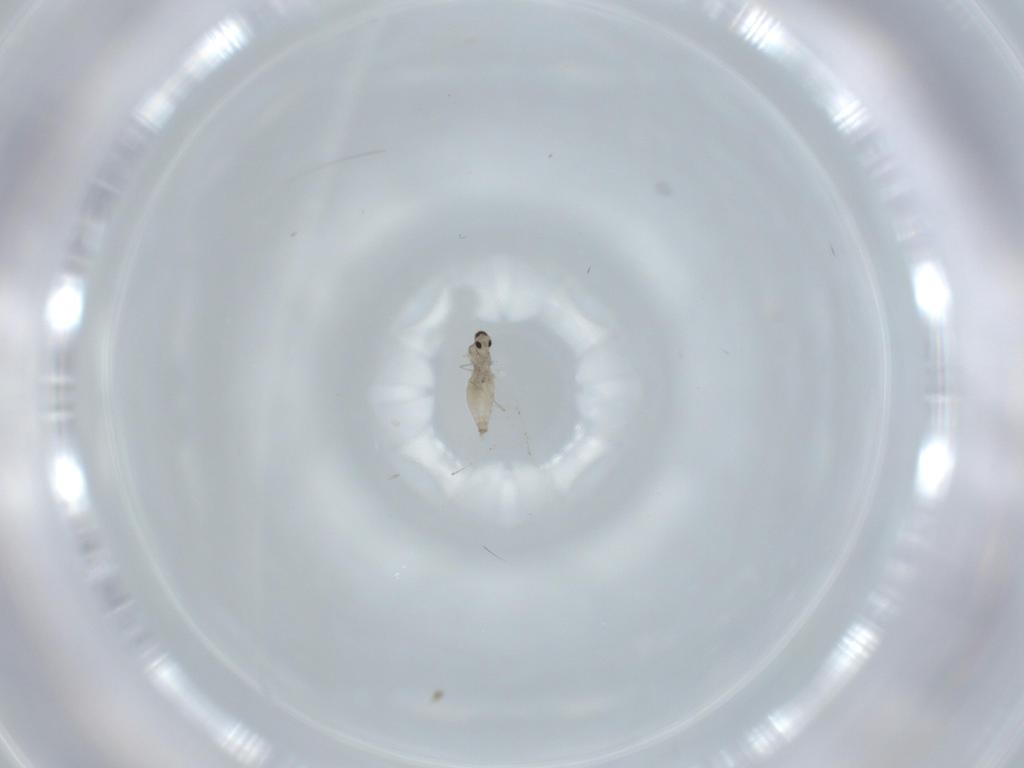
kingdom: Animalia
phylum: Arthropoda
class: Insecta
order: Diptera
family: Cecidomyiidae
